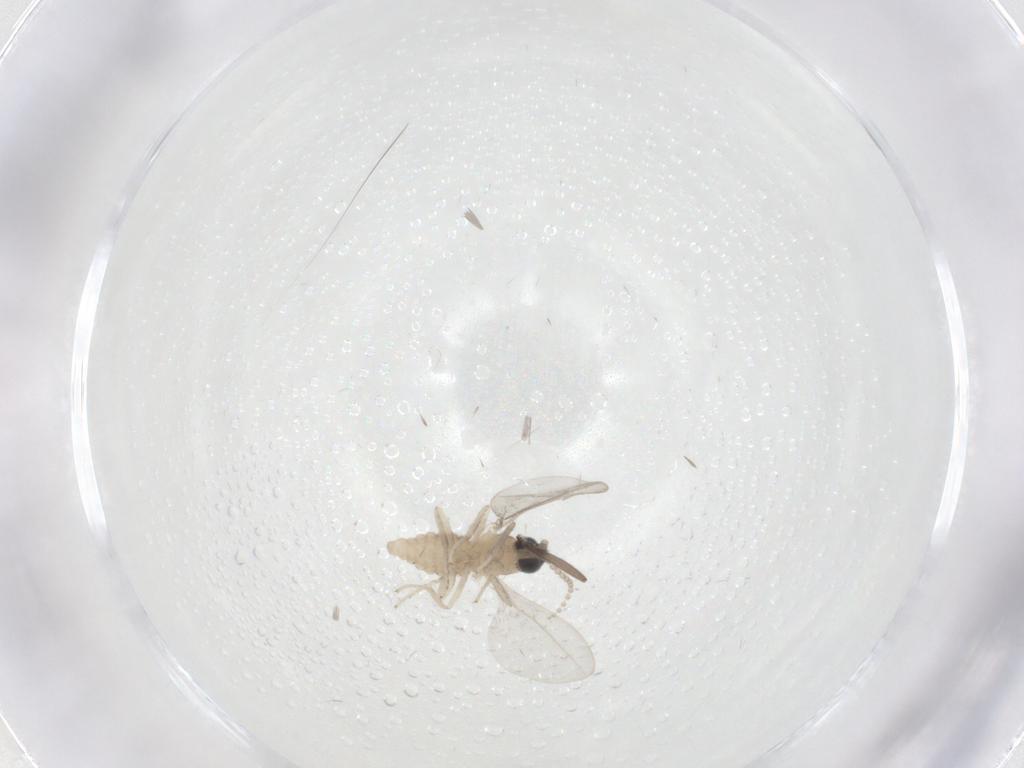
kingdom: Animalia
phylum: Arthropoda
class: Insecta
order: Diptera
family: Cecidomyiidae
